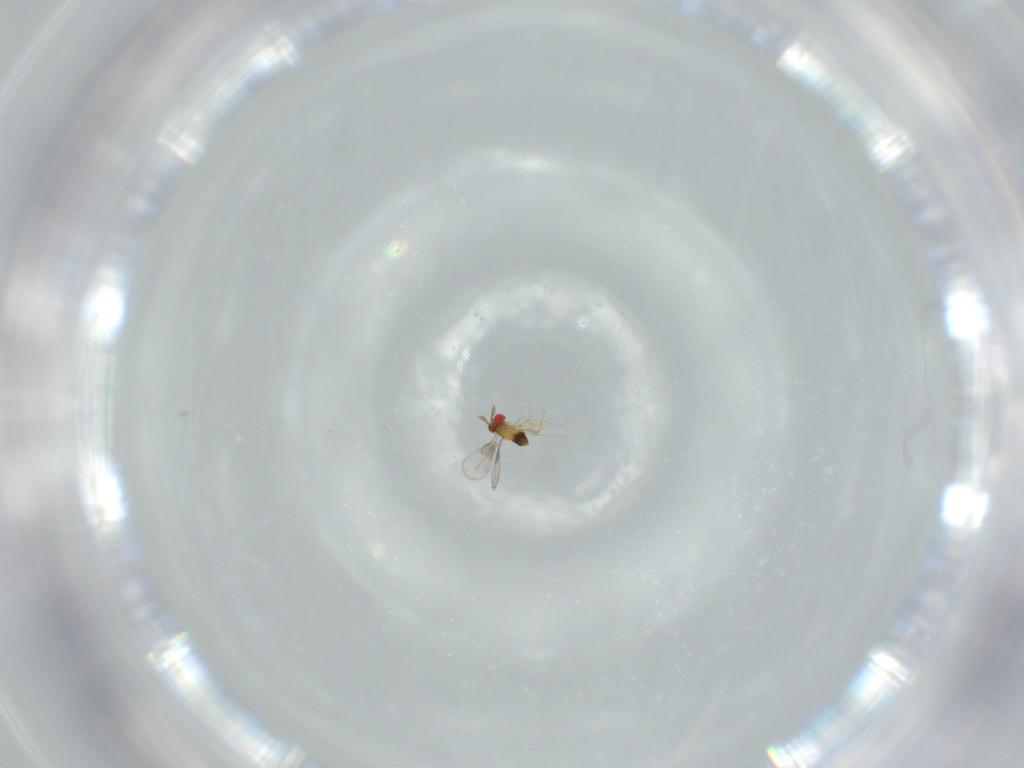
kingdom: Animalia
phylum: Arthropoda
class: Insecta
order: Hymenoptera
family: Trichogrammatidae
